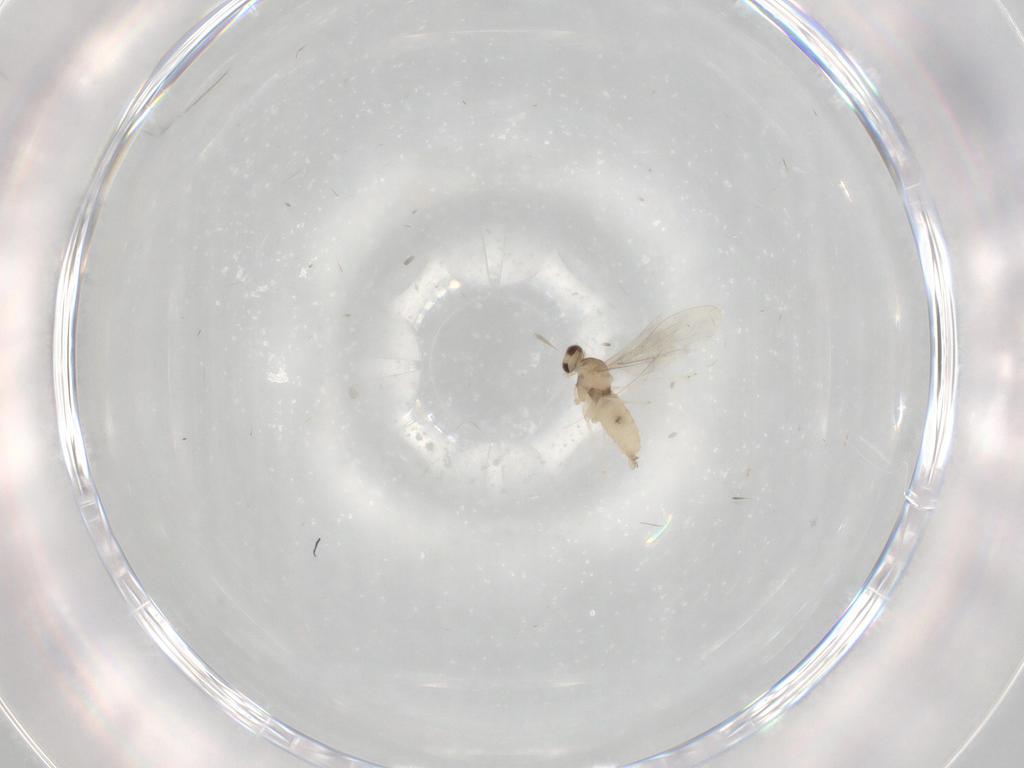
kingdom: Animalia
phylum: Arthropoda
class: Insecta
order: Diptera
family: Cecidomyiidae
